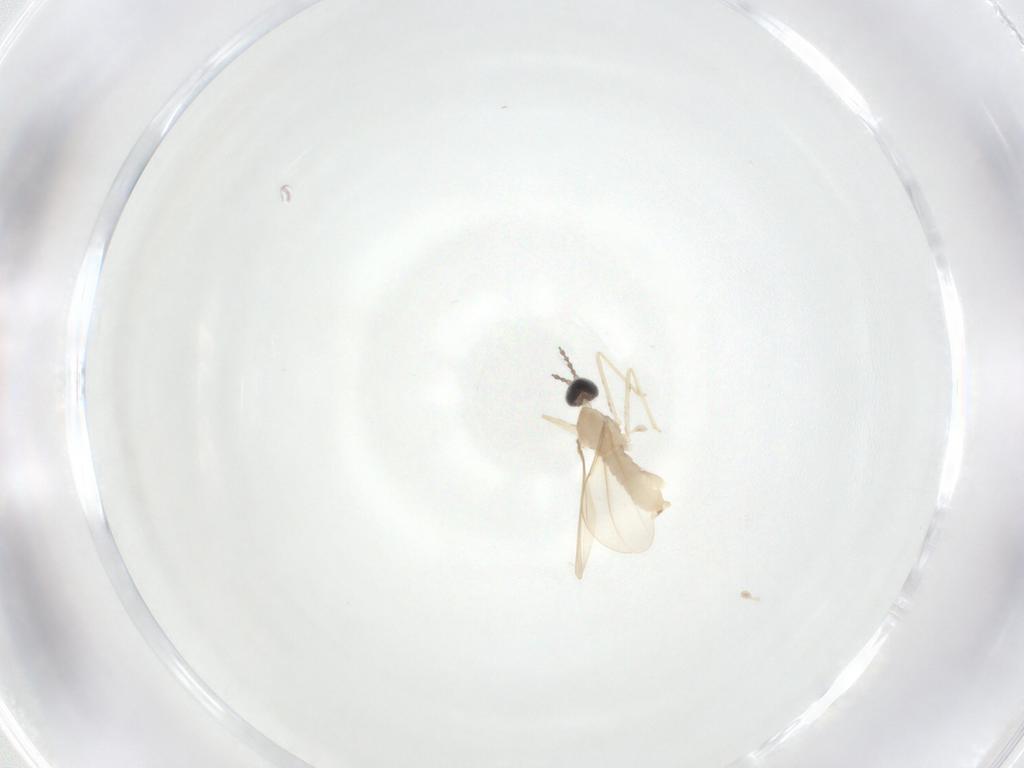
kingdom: Animalia
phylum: Arthropoda
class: Insecta
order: Diptera
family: Cecidomyiidae
